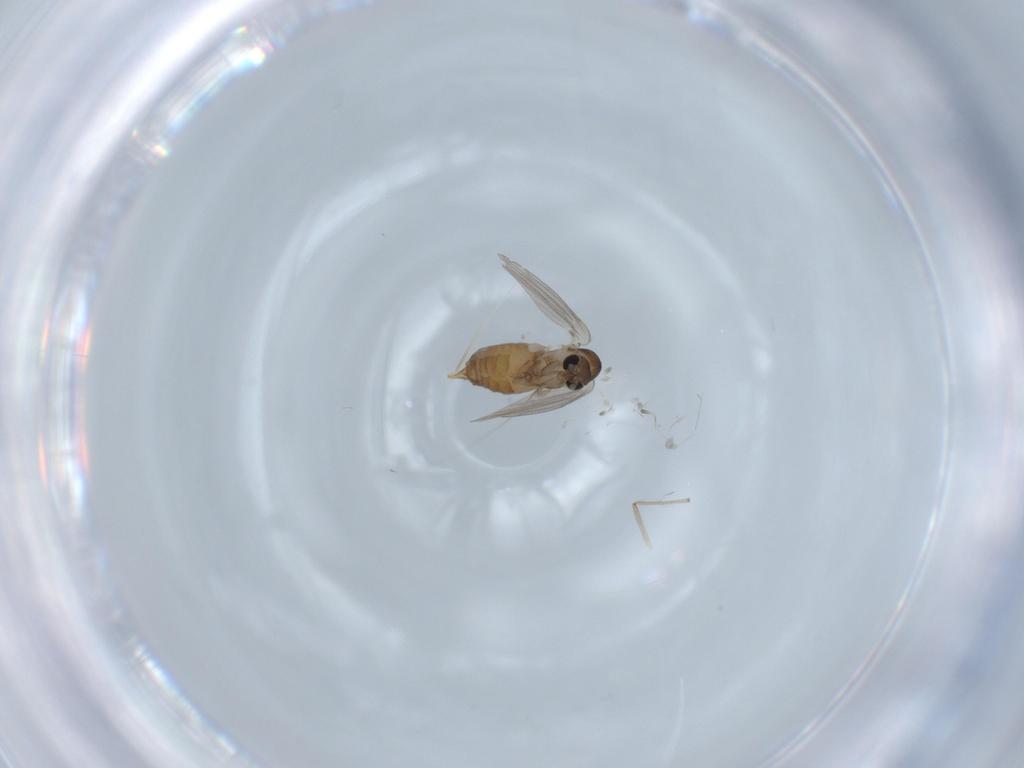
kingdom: Animalia
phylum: Arthropoda
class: Insecta
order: Diptera
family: Chironomidae
